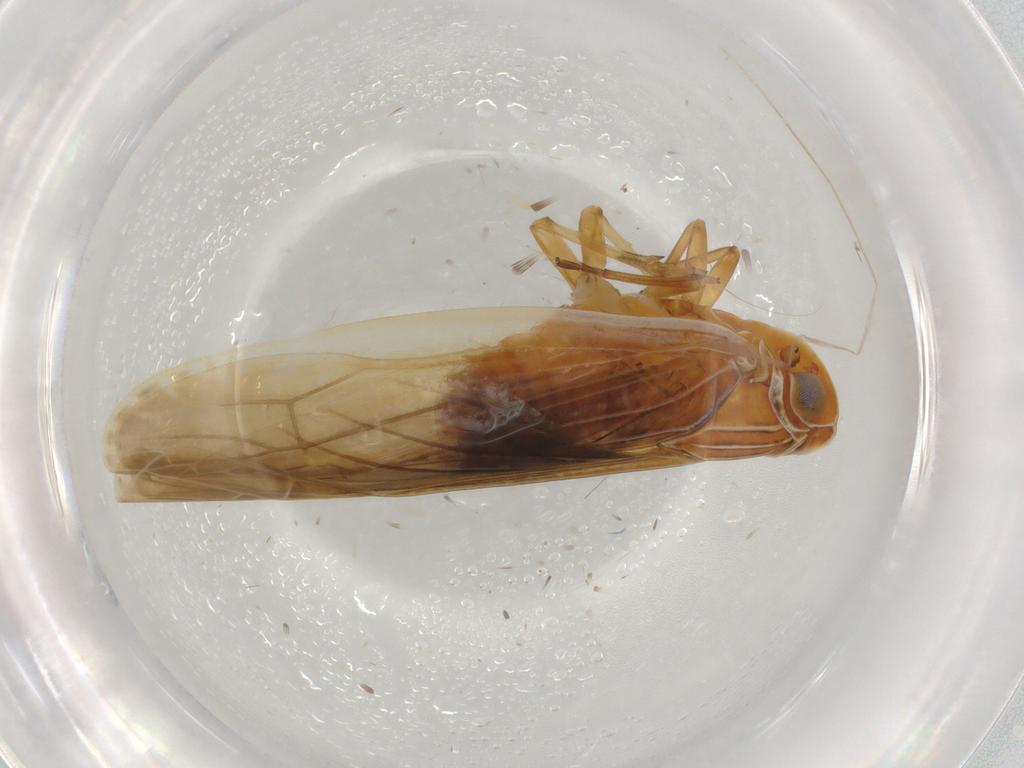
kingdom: Animalia
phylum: Arthropoda
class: Insecta
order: Hemiptera
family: Achilidae
